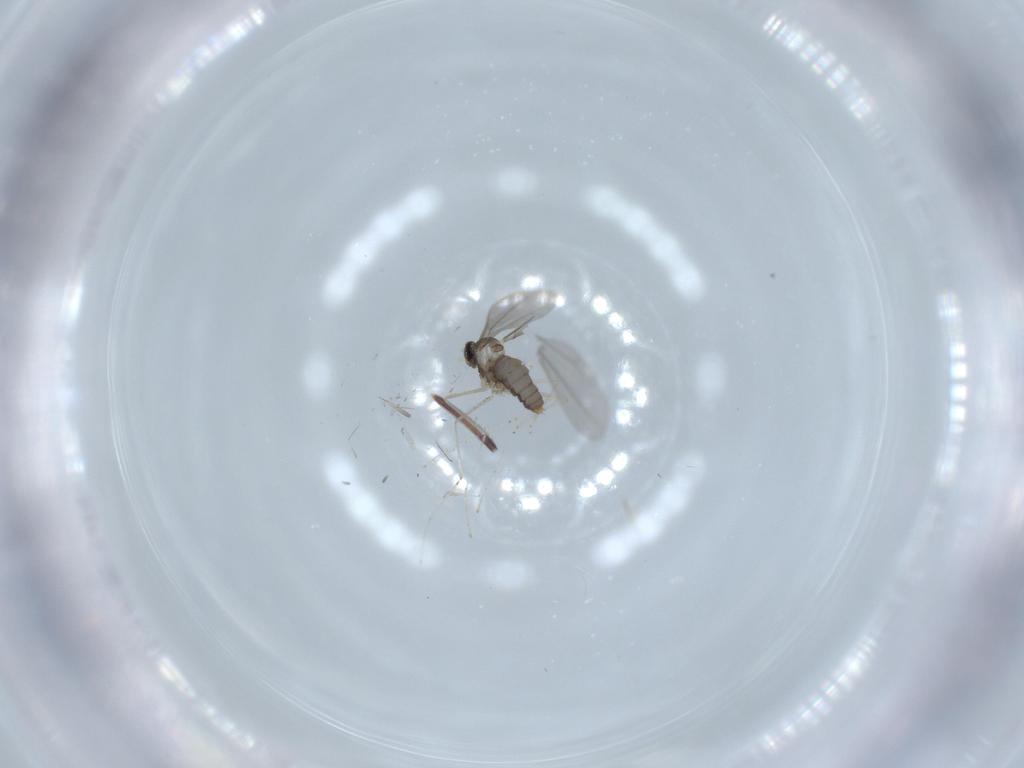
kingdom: Animalia
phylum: Arthropoda
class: Insecta
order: Diptera
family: Cecidomyiidae
